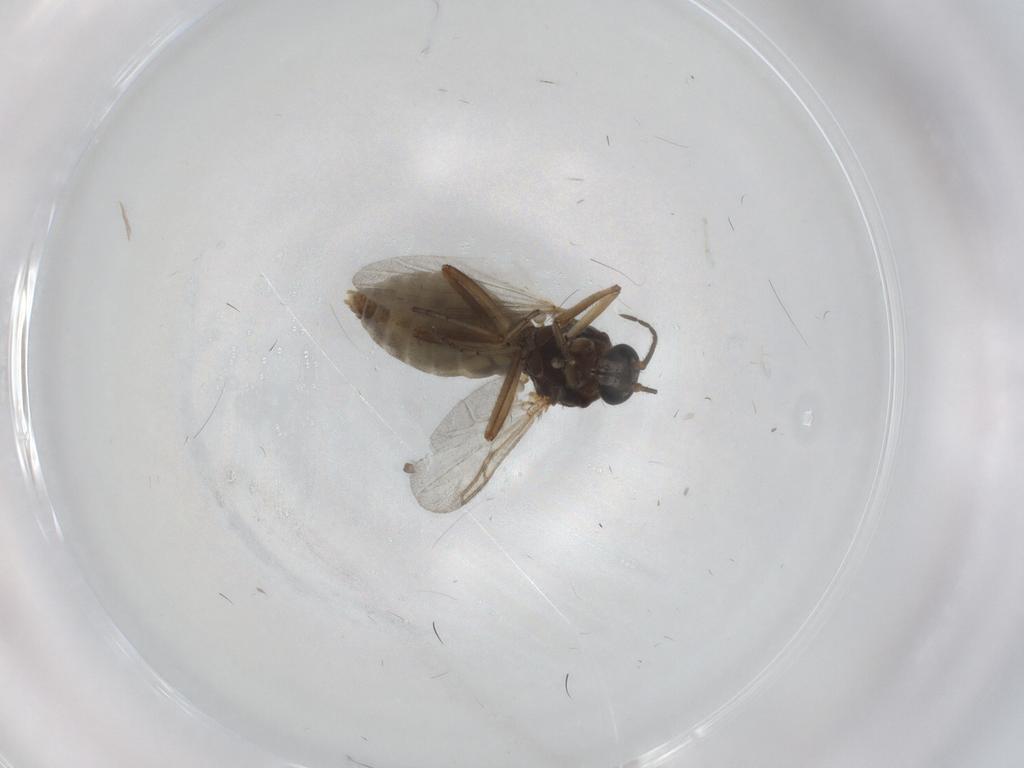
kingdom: Animalia
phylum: Arthropoda
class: Insecta
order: Diptera
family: Ceratopogonidae
